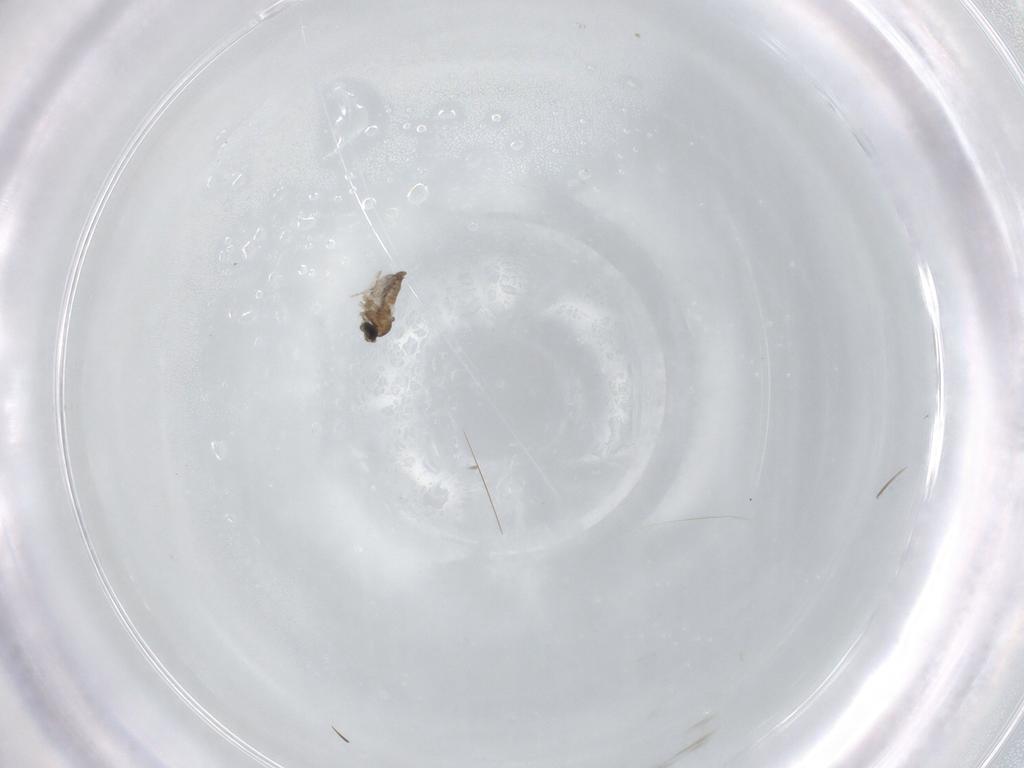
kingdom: Animalia
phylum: Arthropoda
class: Insecta
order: Diptera
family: Cecidomyiidae
